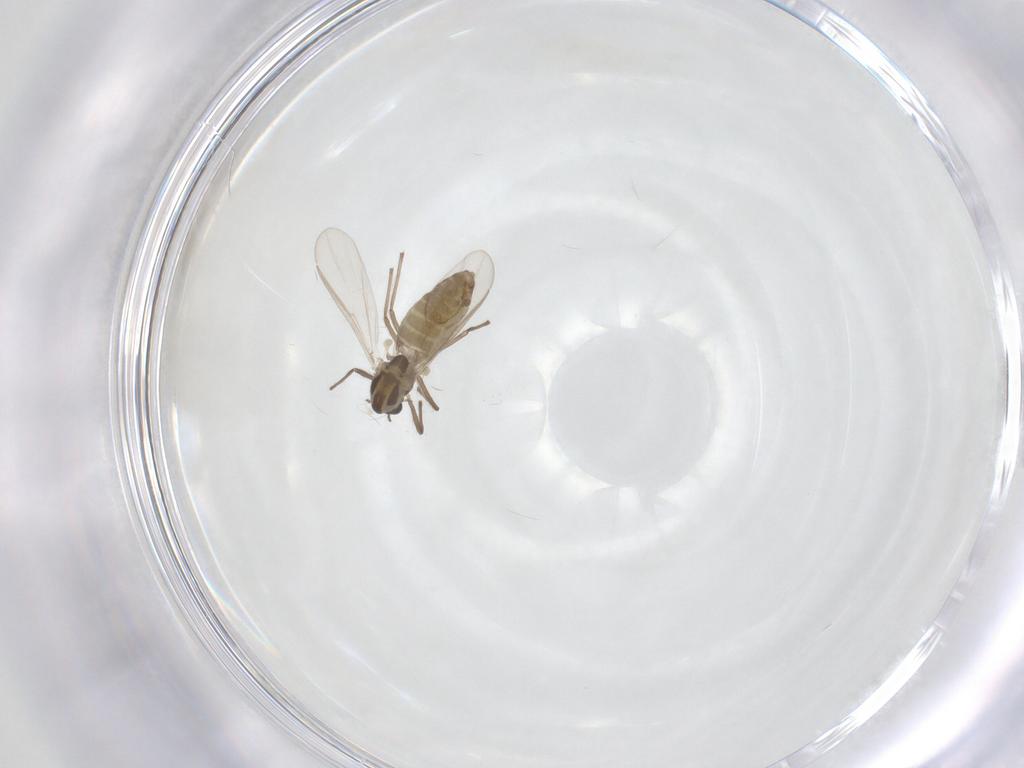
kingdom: Animalia
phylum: Arthropoda
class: Insecta
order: Diptera
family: Chironomidae
